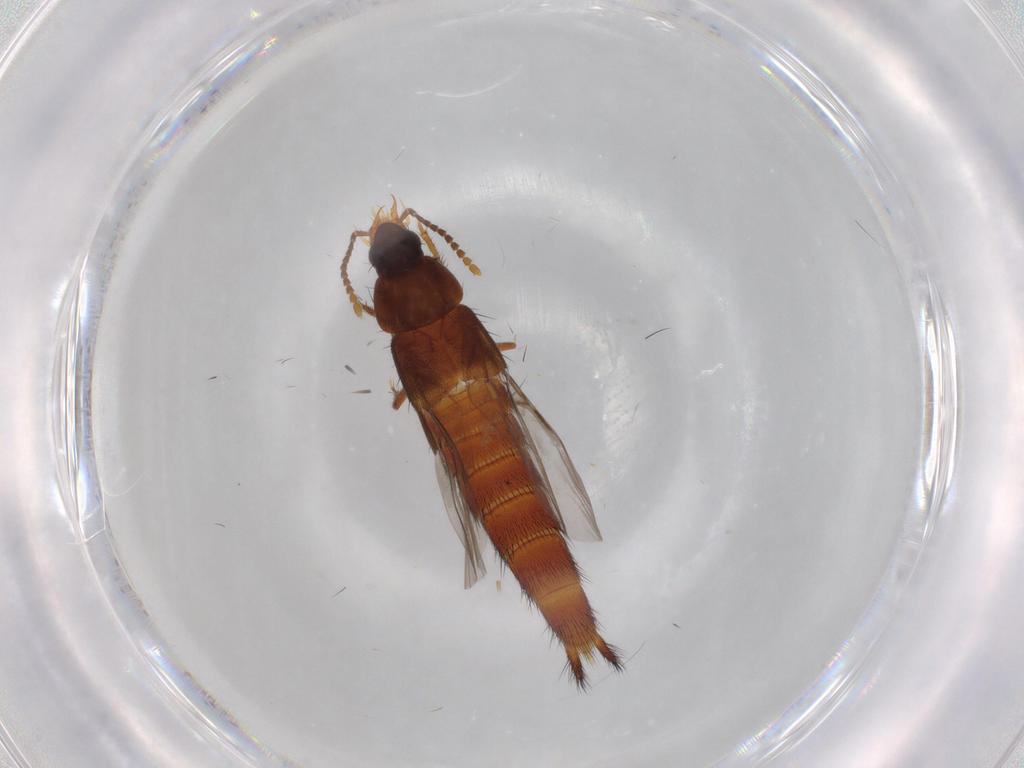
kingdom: Animalia
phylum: Arthropoda
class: Insecta
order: Coleoptera
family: Staphylinidae
